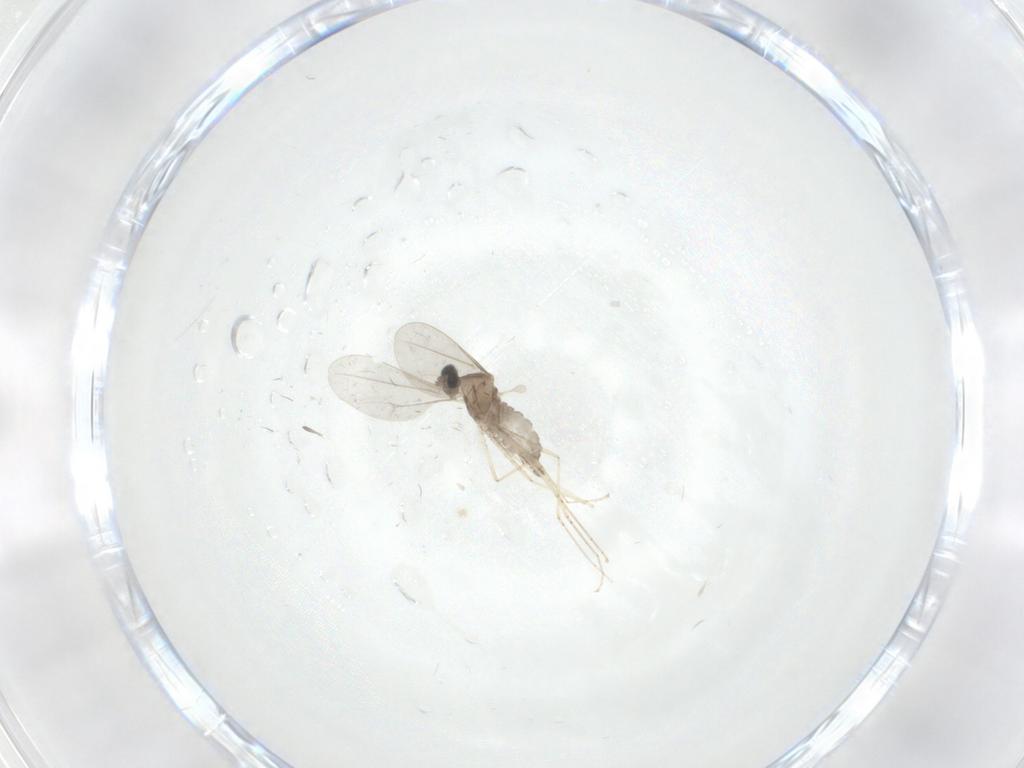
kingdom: Animalia
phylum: Arthropoda
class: Insecta
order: Diptera
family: Cecidomyiidae
